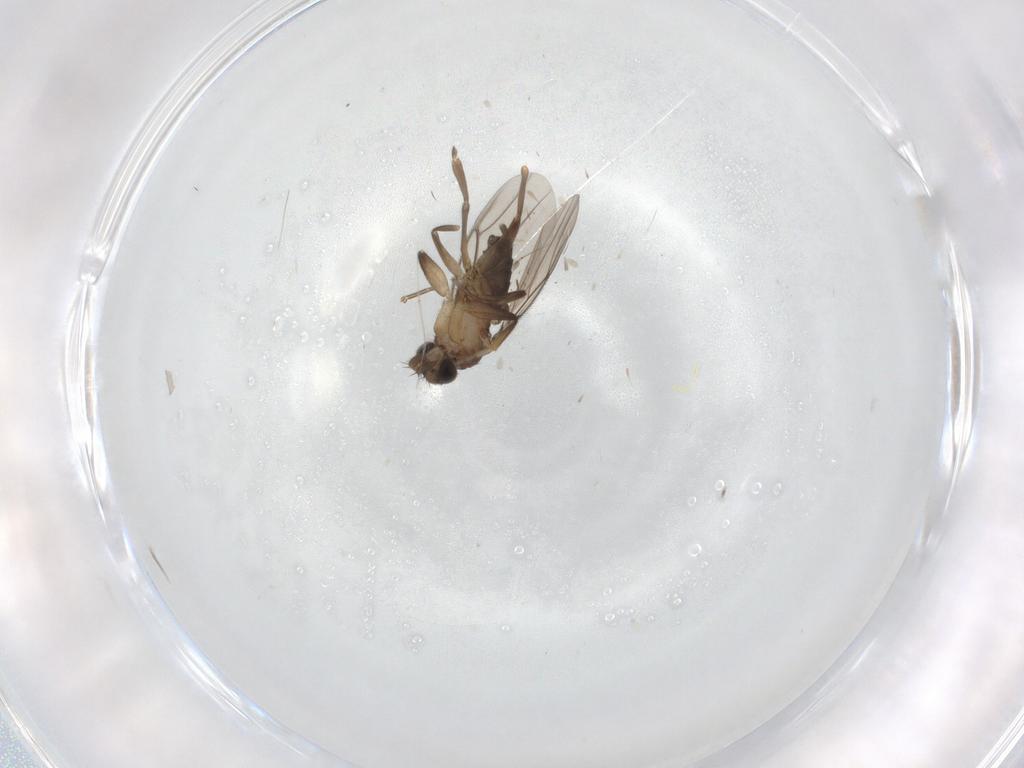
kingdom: Animalia
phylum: Arthropoda
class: Insecta
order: Diptera
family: Phoridae
